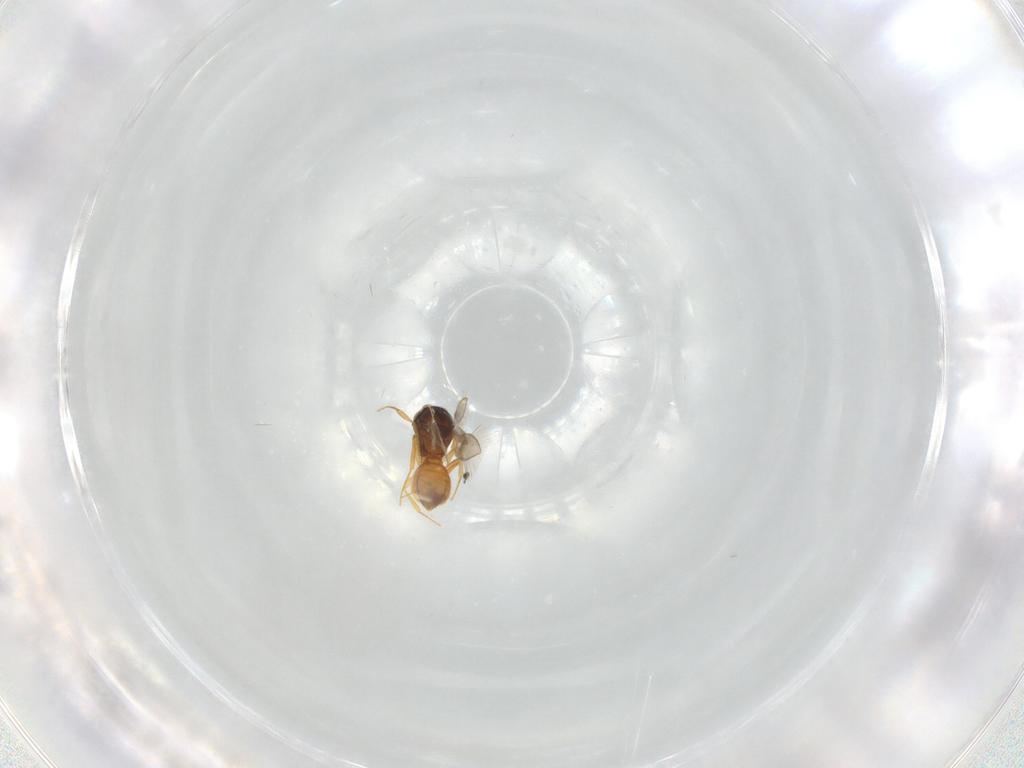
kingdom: Animalia
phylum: Arthropoda
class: Insecta
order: Hymenoptera
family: Scelionidae
